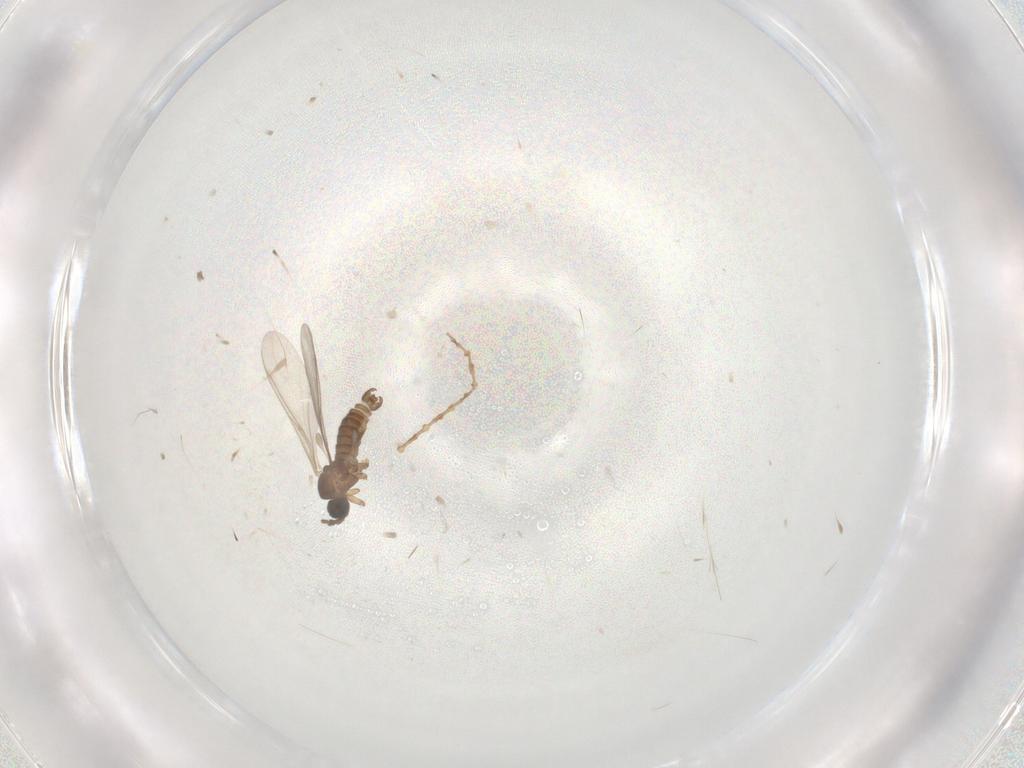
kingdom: Animalia
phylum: Arthropoda
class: Insecta
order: Diptera
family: Sciaridae
